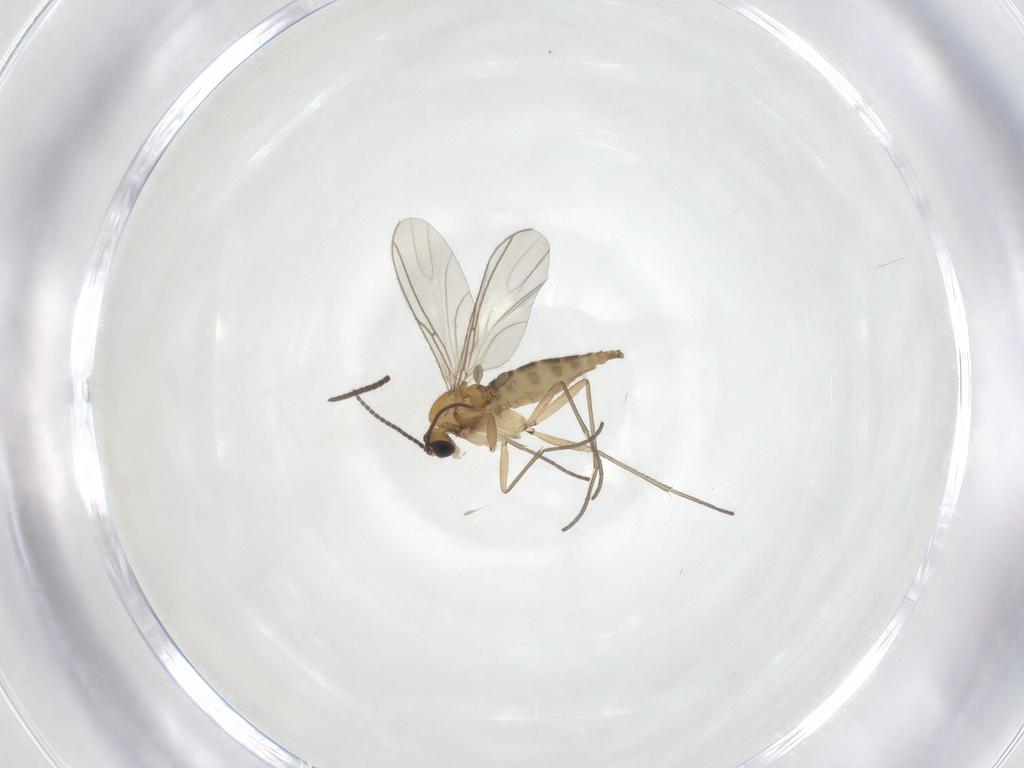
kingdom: Animalia
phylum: Arthropoda
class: Insecta
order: Diptera
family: Sciaridae
